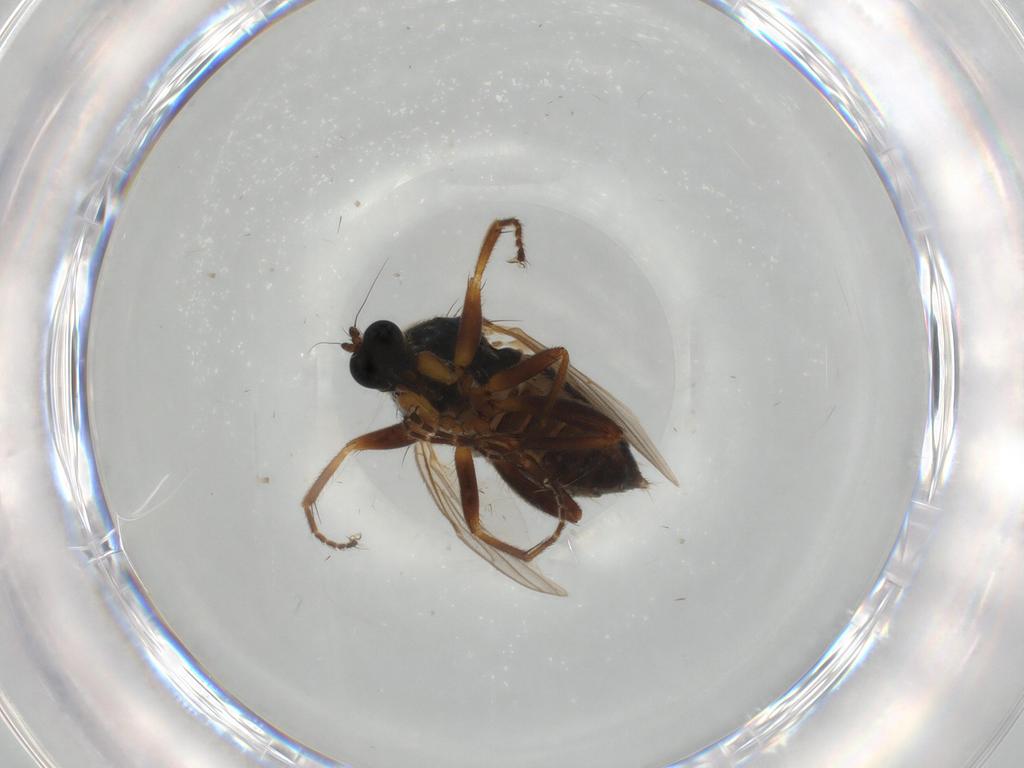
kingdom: Animalia
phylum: Arthropoda
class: Insecta
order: Diptera
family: Hybotidae
